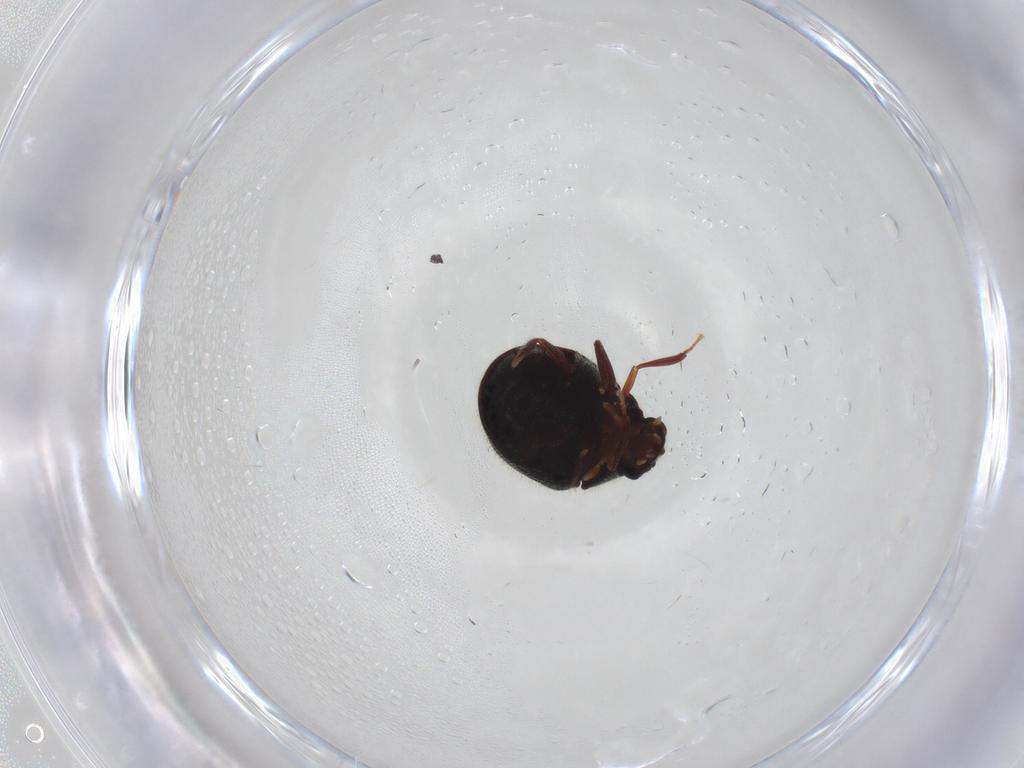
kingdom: Animalia
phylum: Arthropoda
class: Insecta
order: Coleoptera
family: Ptinidae
